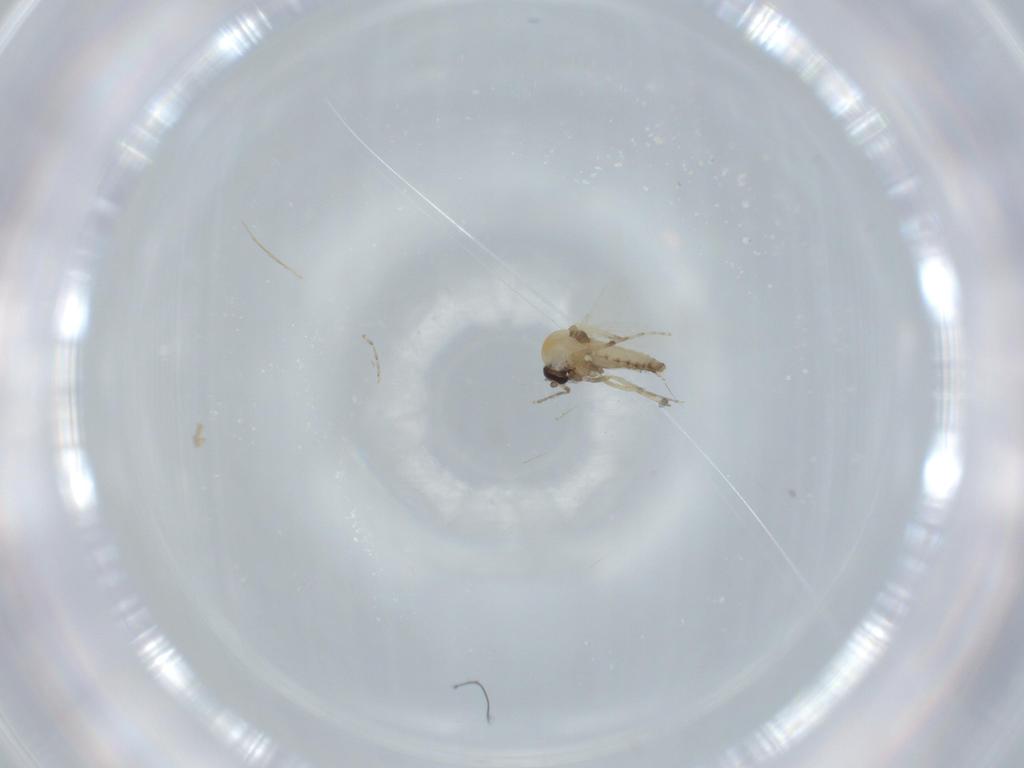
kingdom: Animalia
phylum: Arthropoda
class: Insecta
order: Diptera
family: Ceratopogonidae
